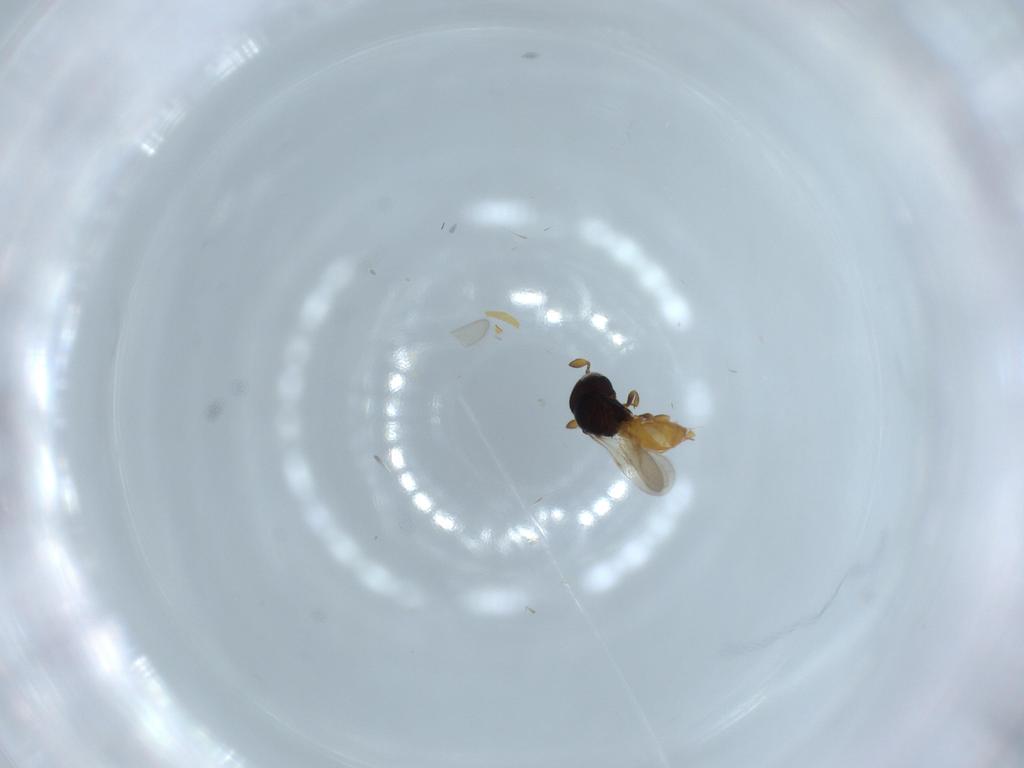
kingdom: Animalia
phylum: Arthropoda
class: Insecta
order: Hymenoptera
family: Scelionidae
